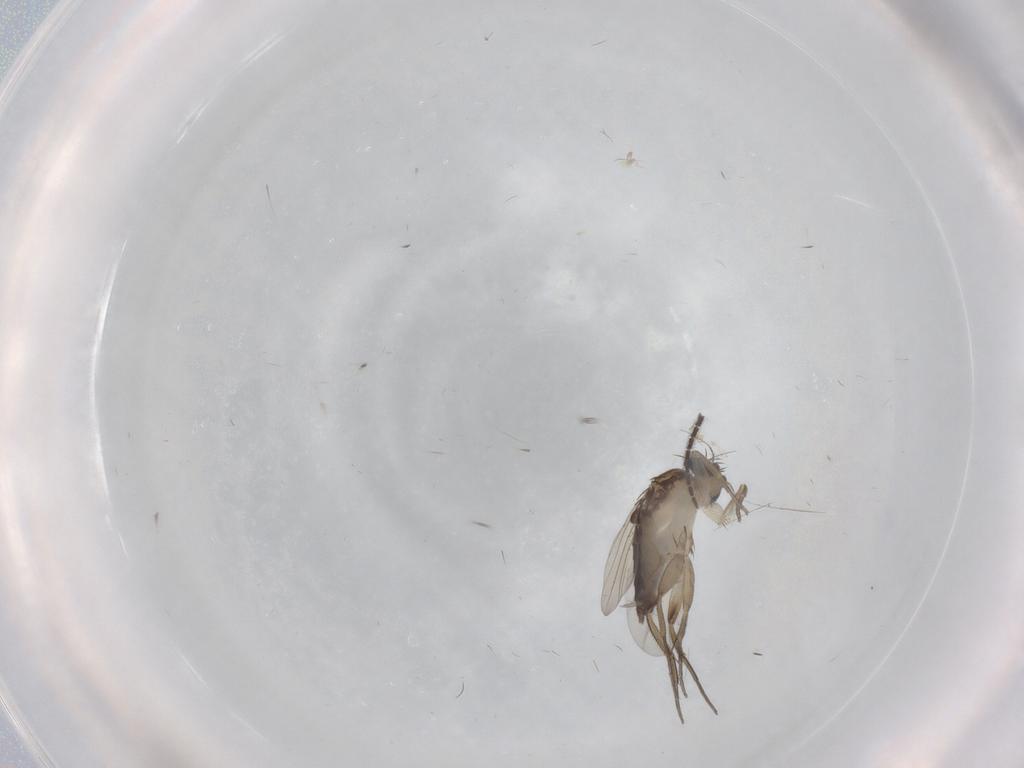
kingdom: Animalia
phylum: Arthropoda
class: Insecta
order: Diptera
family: Phoridae
